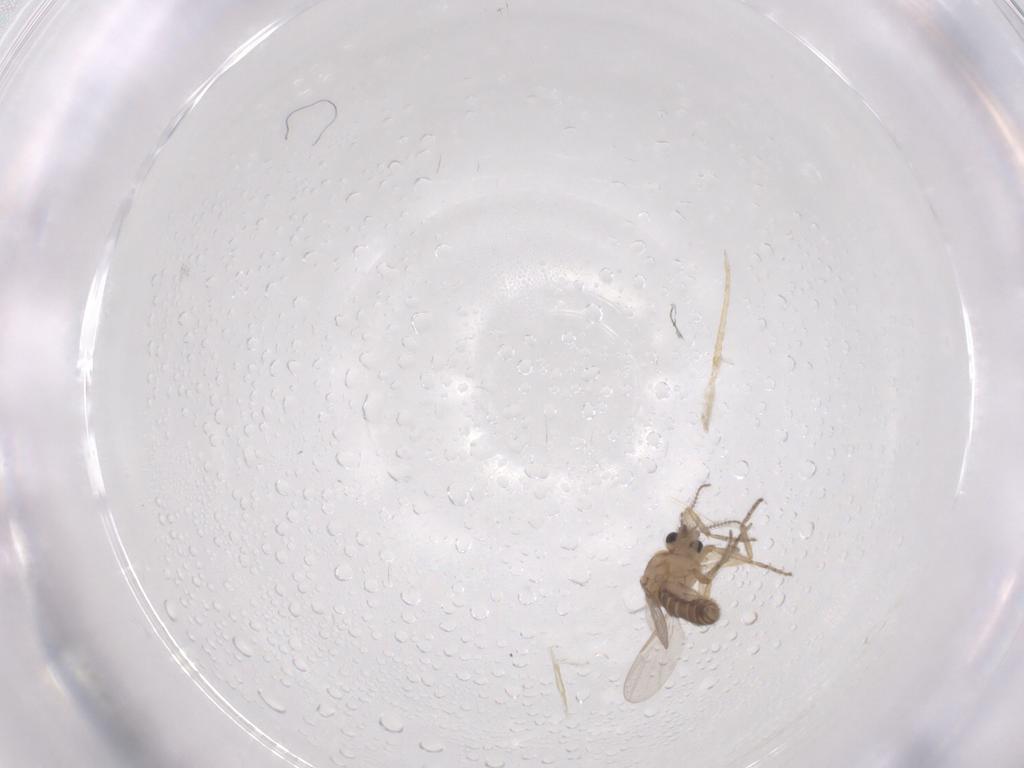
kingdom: Animalia
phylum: Arthropoda
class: Insecta
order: Diptera
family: Ceratopogonidae
